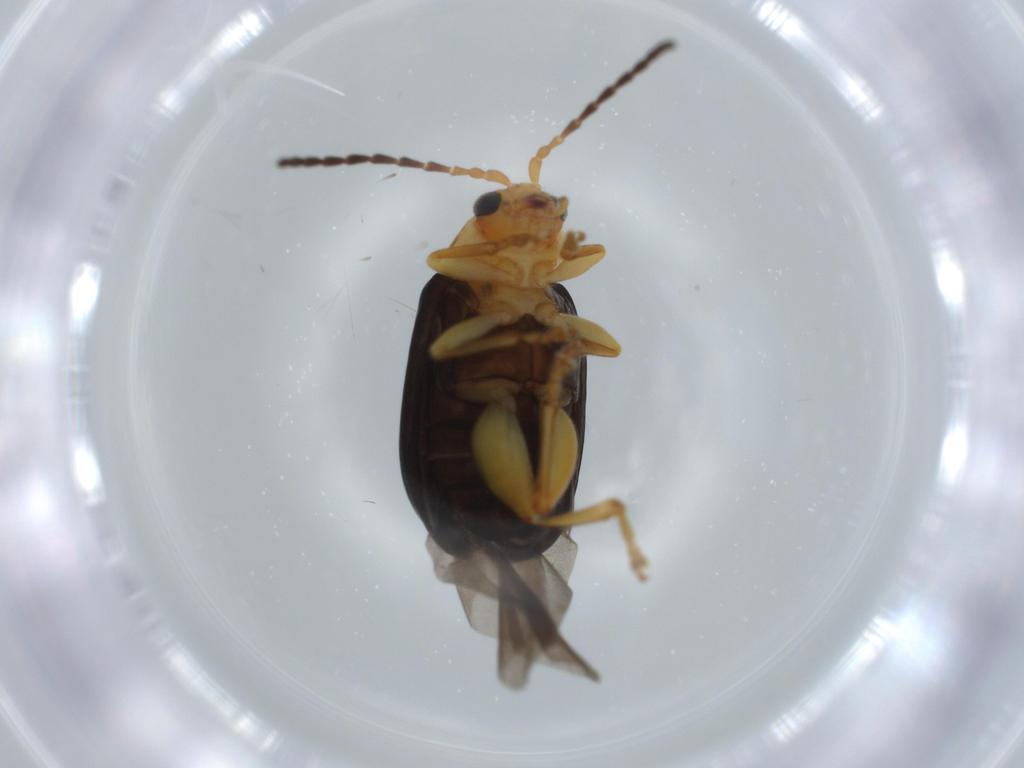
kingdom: Animalia
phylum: Arthropoda
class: Insecta
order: Coleoptera
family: Chrysomelidae
